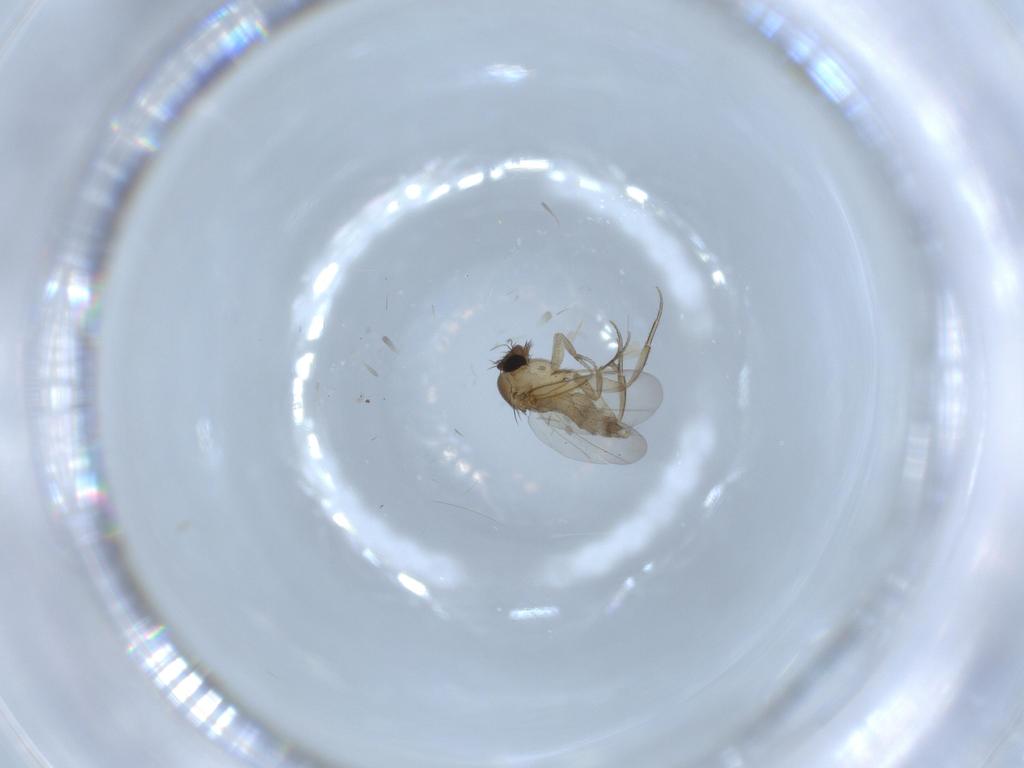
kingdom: Animalia
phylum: Arthropoda
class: Insecta
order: Diptera
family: Phoridae
